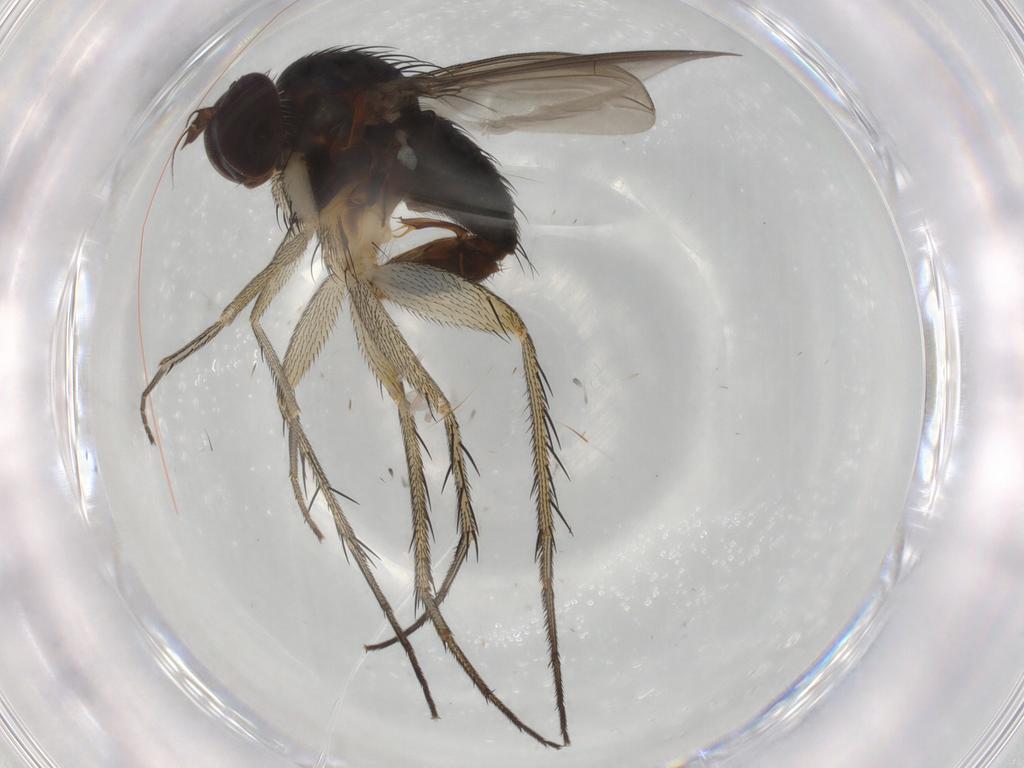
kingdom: Animalia
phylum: Arthropoda
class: Insecta
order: Diptera
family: Dolichopodidae
